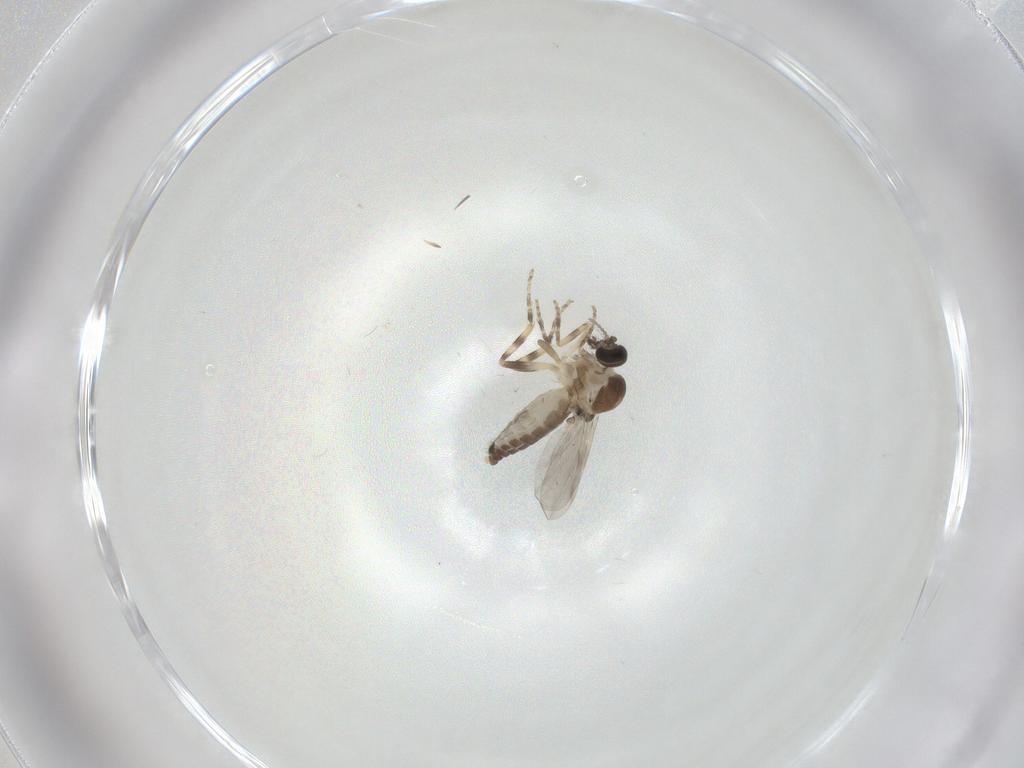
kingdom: Animalia
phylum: Arthropoda
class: Insecta
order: Diptera
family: Ceratopogonidae
